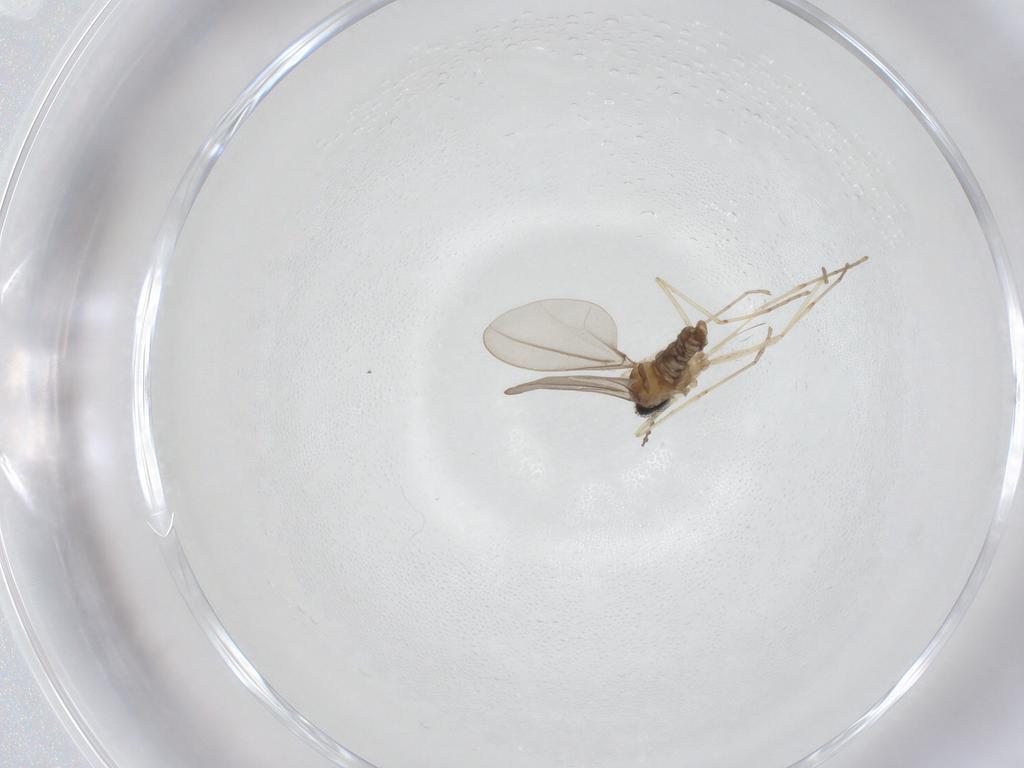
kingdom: Animalia
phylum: Arthropoda
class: Insecta
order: Diptera
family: Cecidomyiidae
